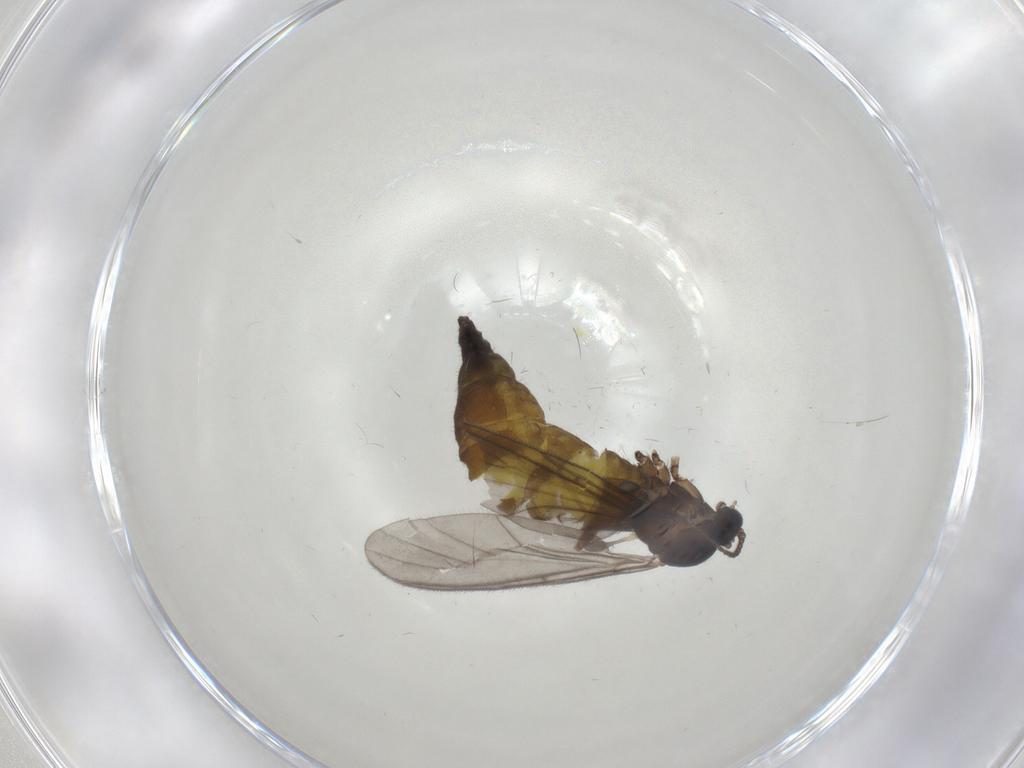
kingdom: Animalia
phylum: Arthropoda
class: Insecta
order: Diptera
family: Sciaridae
